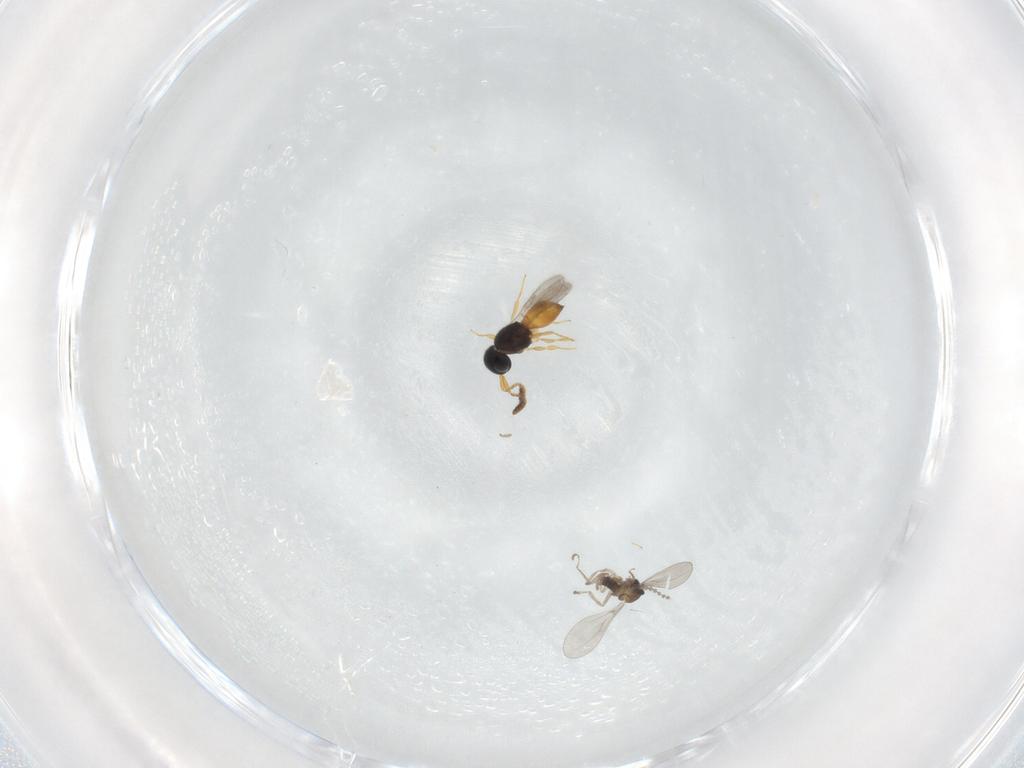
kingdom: Animalia
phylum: Arthropoda
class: Insecta
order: Diptera
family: Cecidomyiidae
